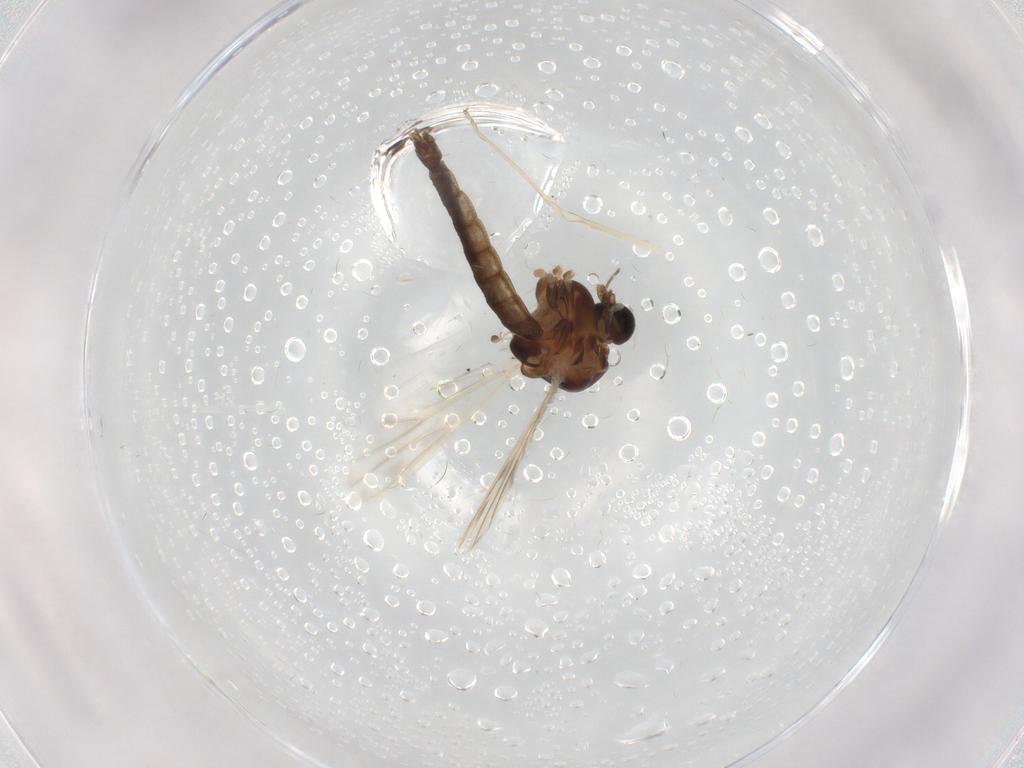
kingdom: Animalia
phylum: Arthropoda
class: Insecta
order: Diptera
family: Chironomidae
